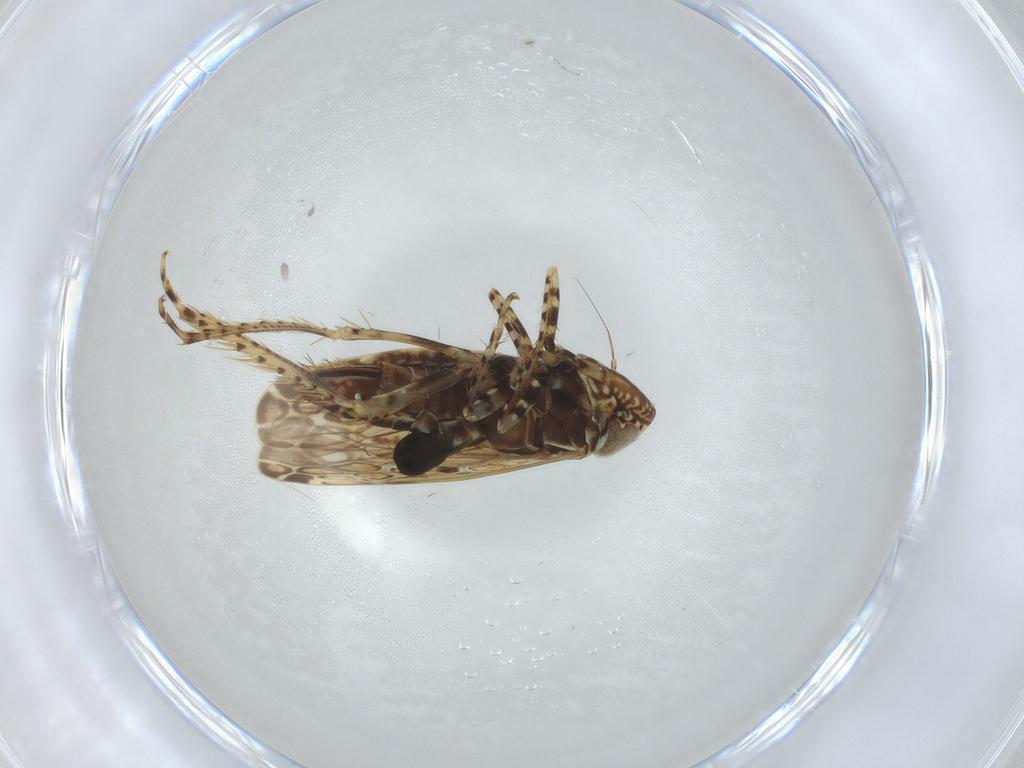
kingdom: Animalia
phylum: Arthropoda
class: Insecta
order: Hemiptera
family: Cicadellidae
